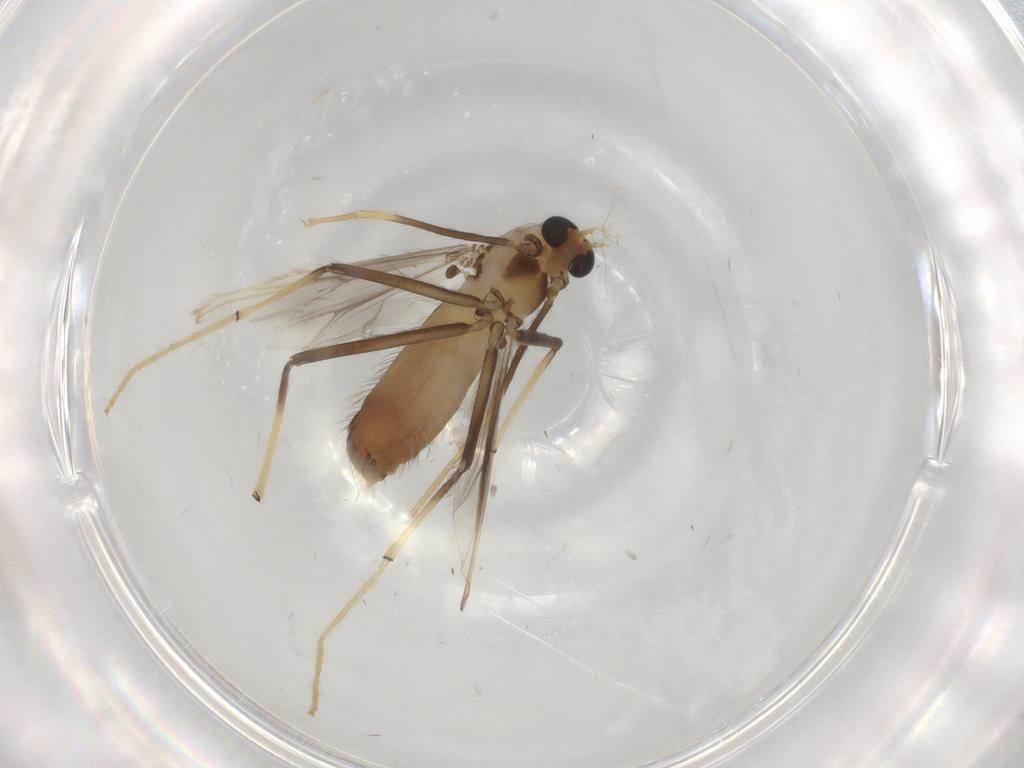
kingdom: Animalia
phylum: Arthropoda
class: Insecta
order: Diptera
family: Chironomidae
